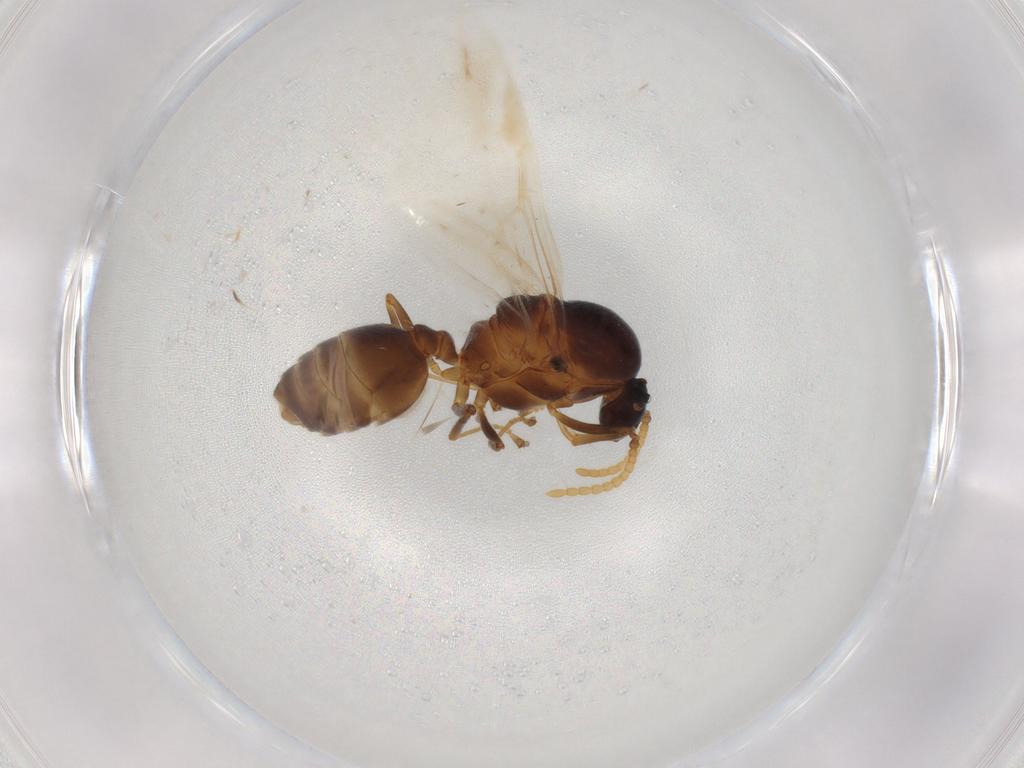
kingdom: Animalia
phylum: Arthropoda
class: Insecta
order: Hymenoptera
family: Formicidae
